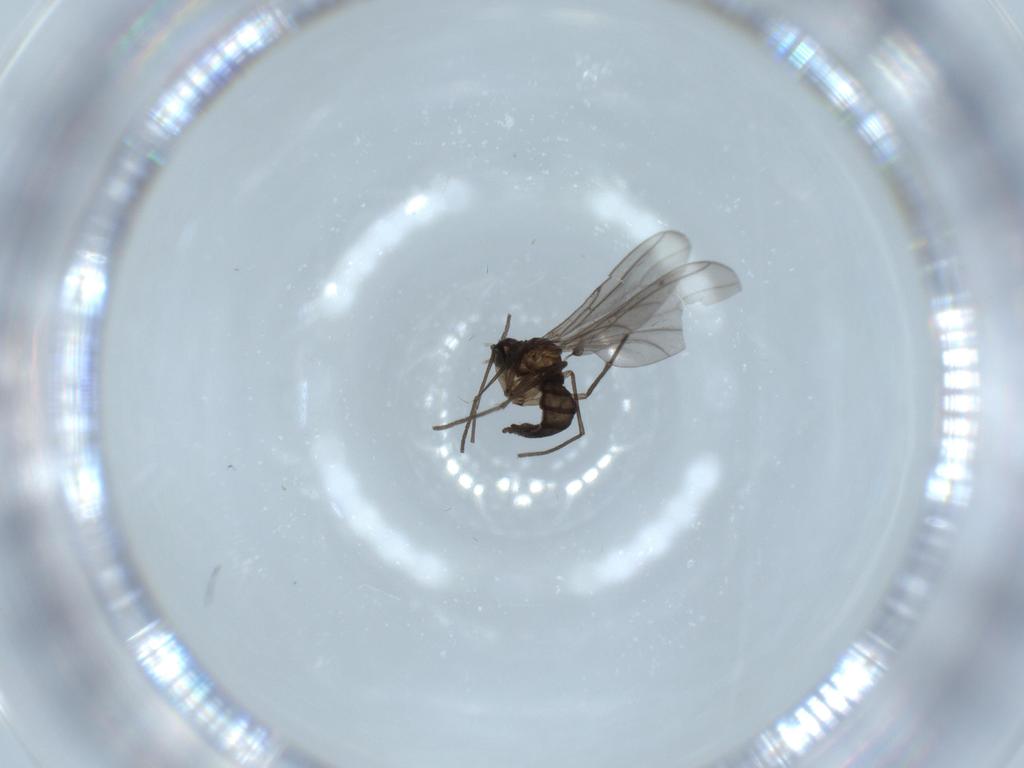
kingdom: Animalia
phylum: Arthropoda
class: Insecta
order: Diptera
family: Sciaridae
